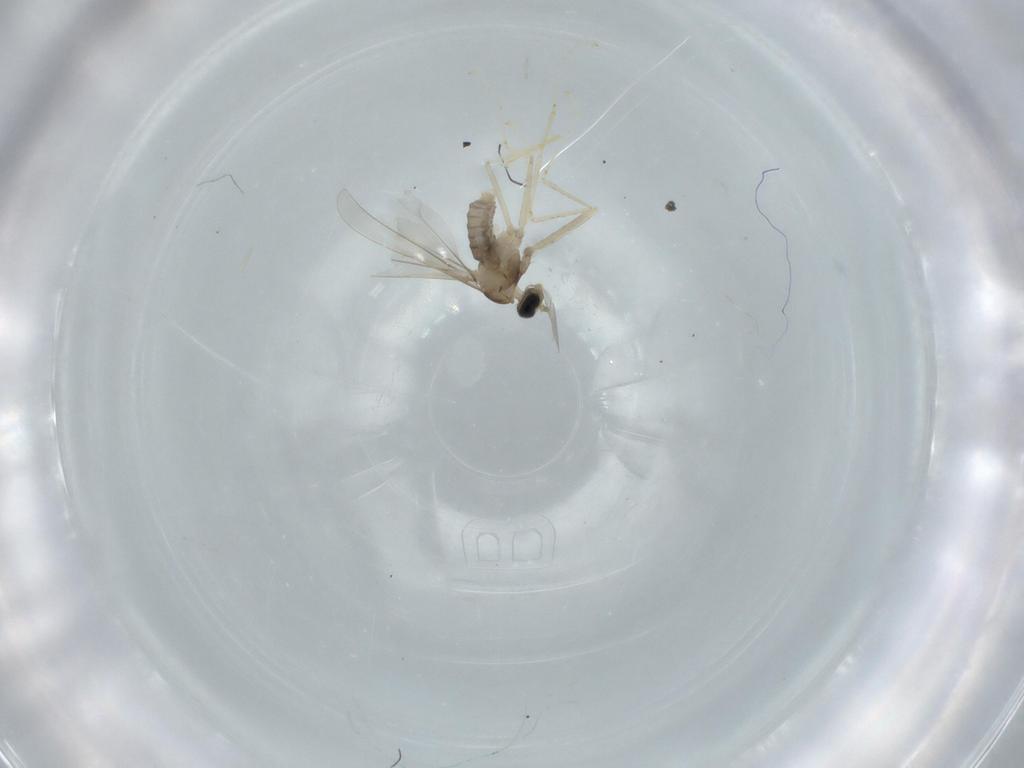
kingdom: Animalia
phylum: Arthropoda
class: Insecta
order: Diptera
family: Cecidomyiidae
